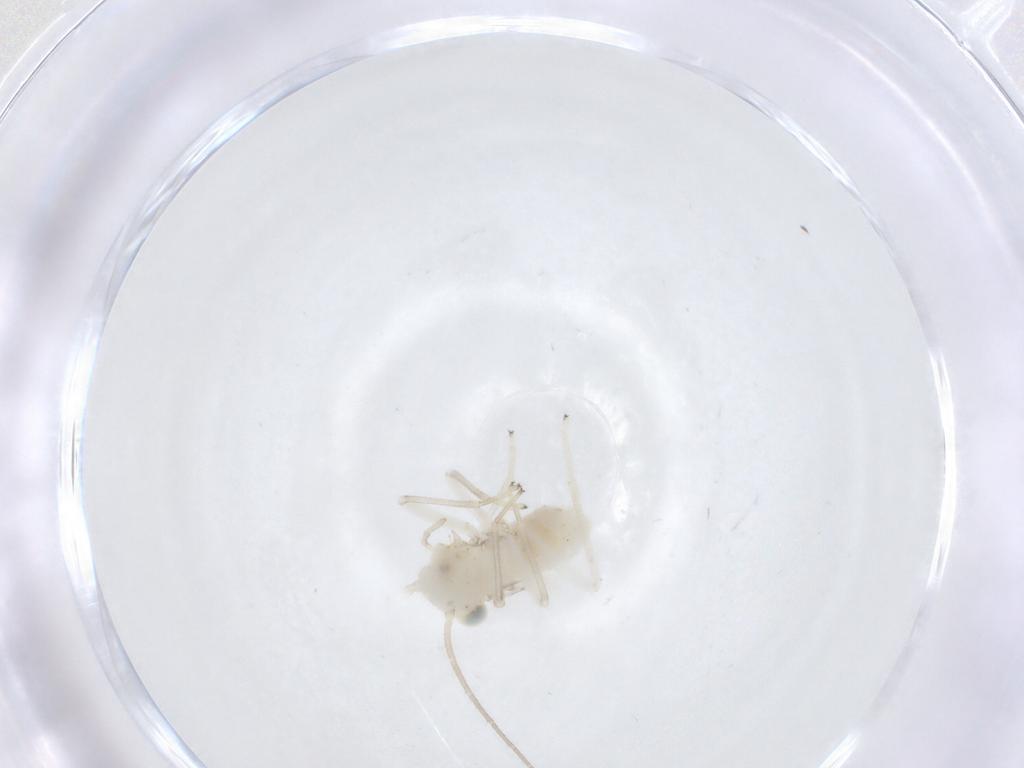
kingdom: Animalia
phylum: Arthropoda
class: Insecta
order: Psocodea
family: Caeciliusidae
